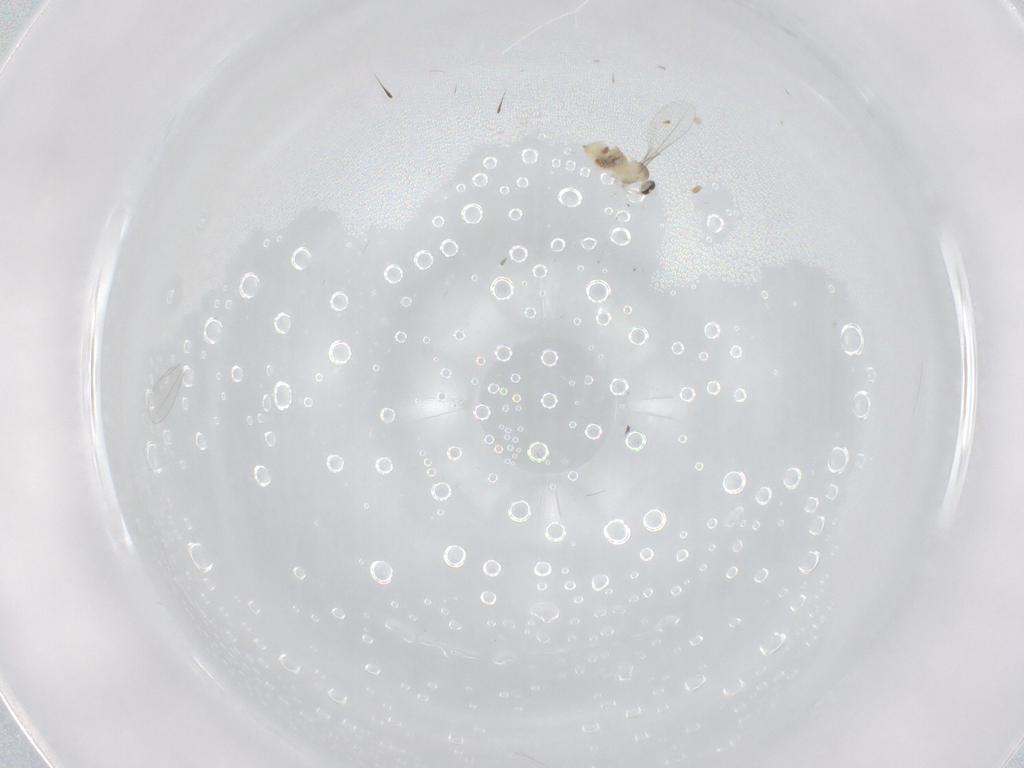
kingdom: Animalia
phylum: Arthropoda
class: Insecta
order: Diptera
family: Cecidomyiidae
